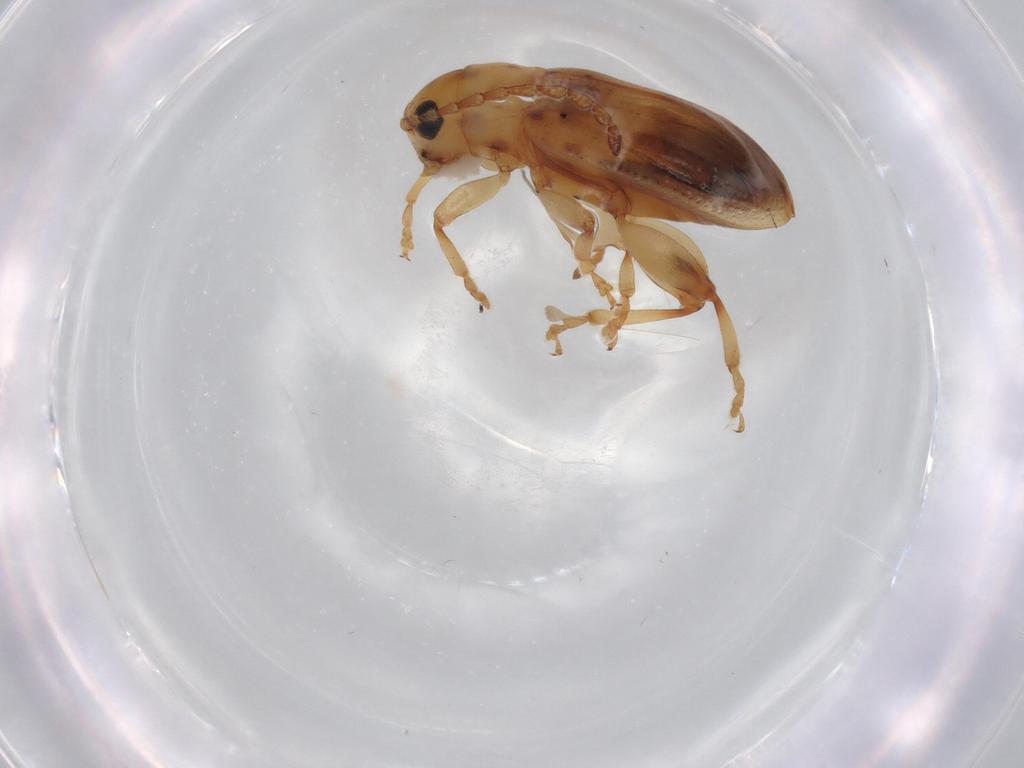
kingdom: Animalia
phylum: Arthropoda
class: Insecta
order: Coleoptera
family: Chrysomelidae
